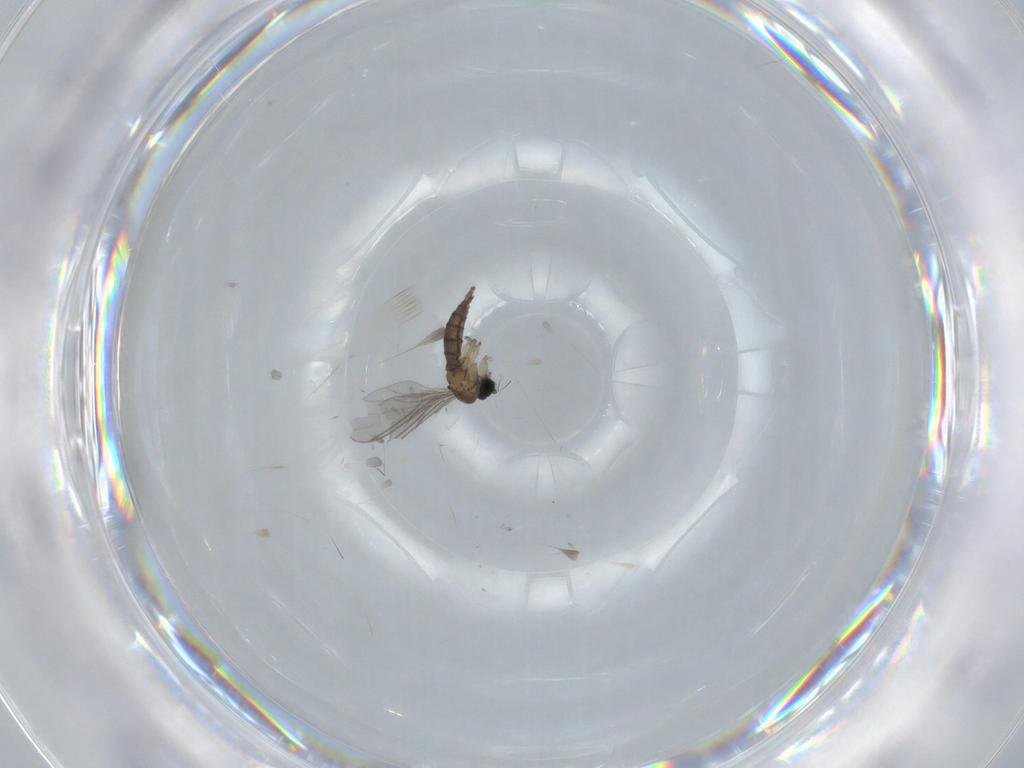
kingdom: Animalia
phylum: Arthropoda
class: Insecta
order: Diptera
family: Sciaridae
